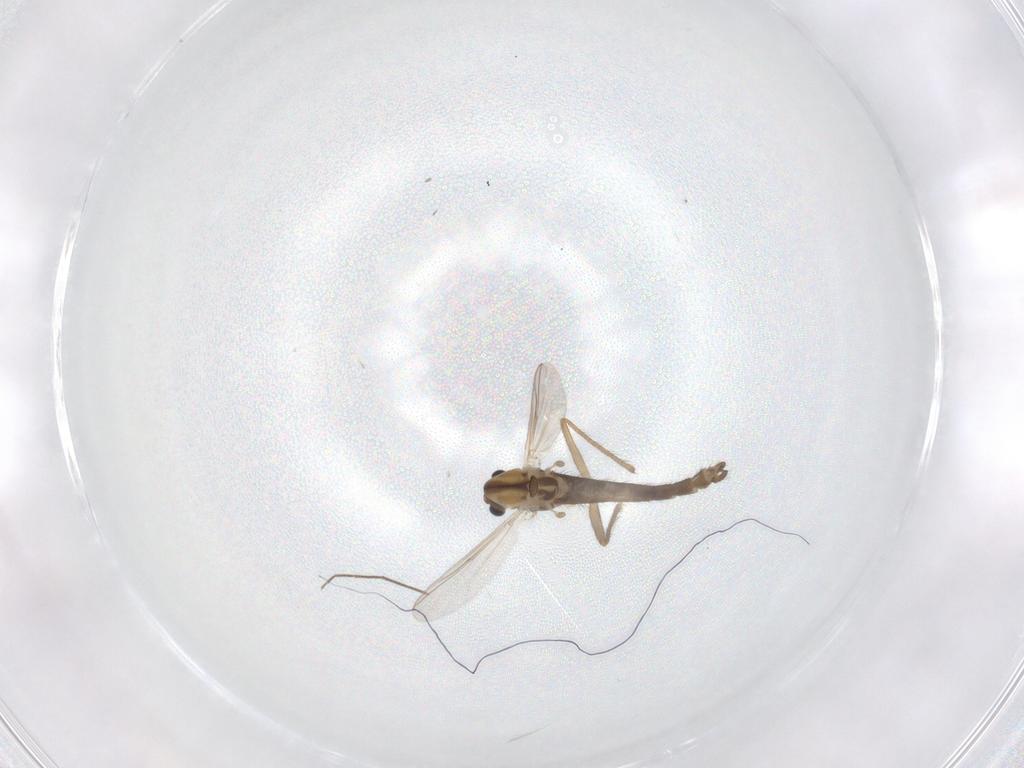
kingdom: Animalia
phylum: Arthropoda
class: Insecta
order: Diptera
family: Chironomidae
